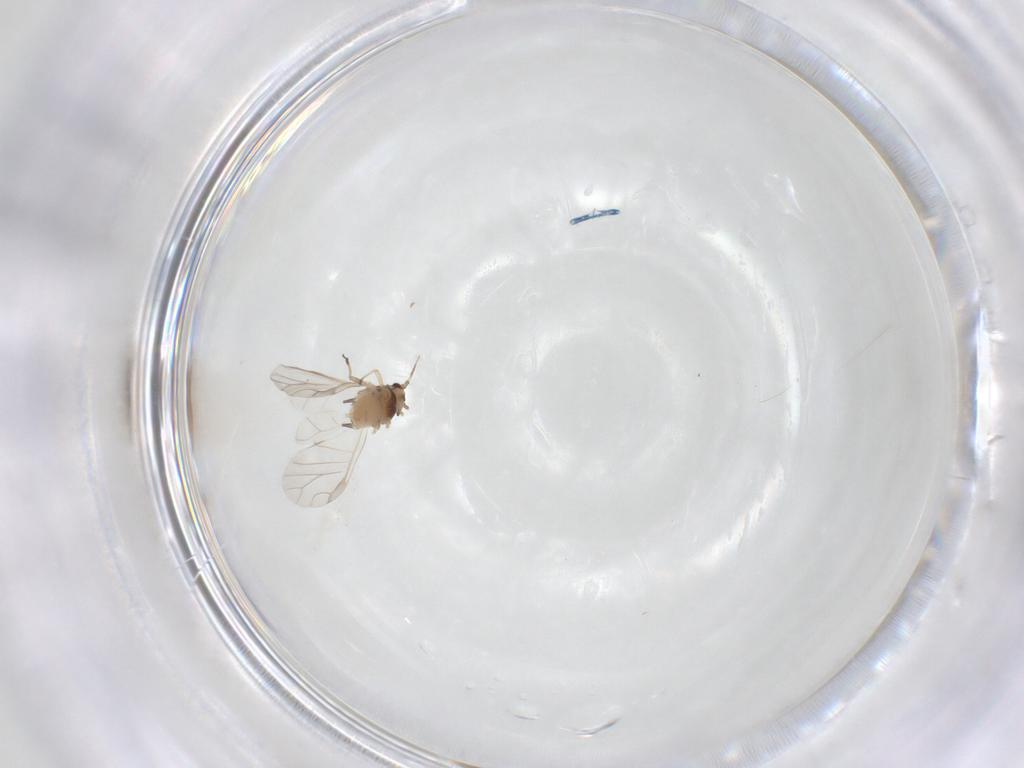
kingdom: Animalia
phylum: Arthropoda
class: Insecta
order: Hemiptera
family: Aphididae
